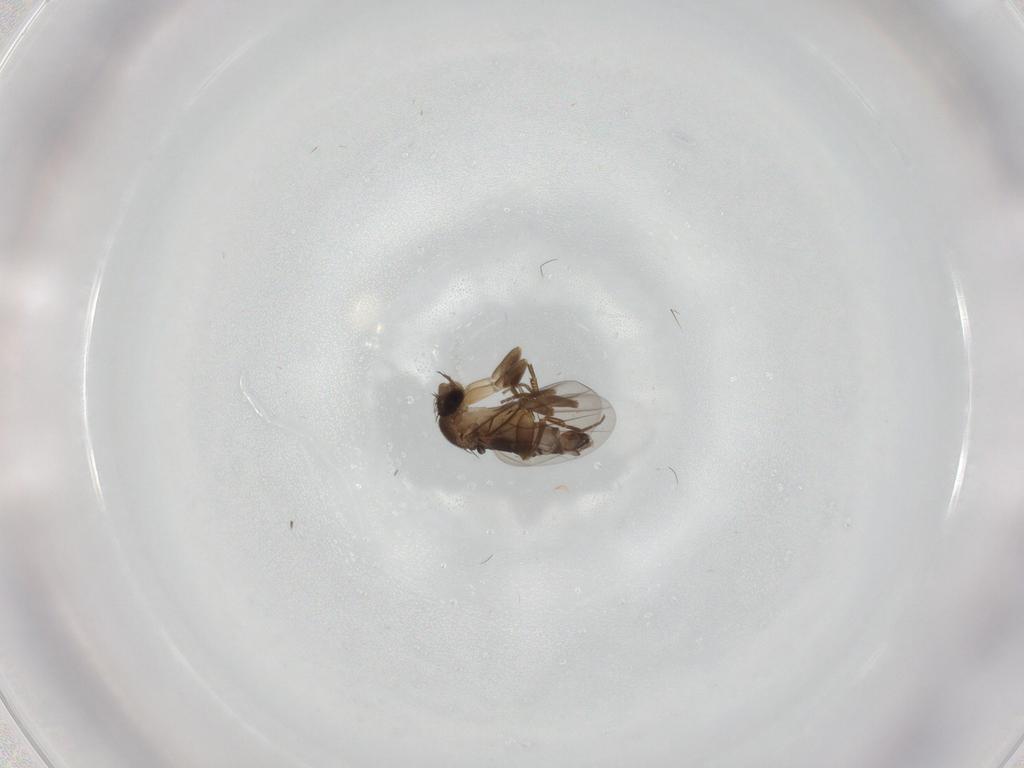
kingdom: Animalia
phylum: Arthropoda
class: Insecta
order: Diptera
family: Phoridae
